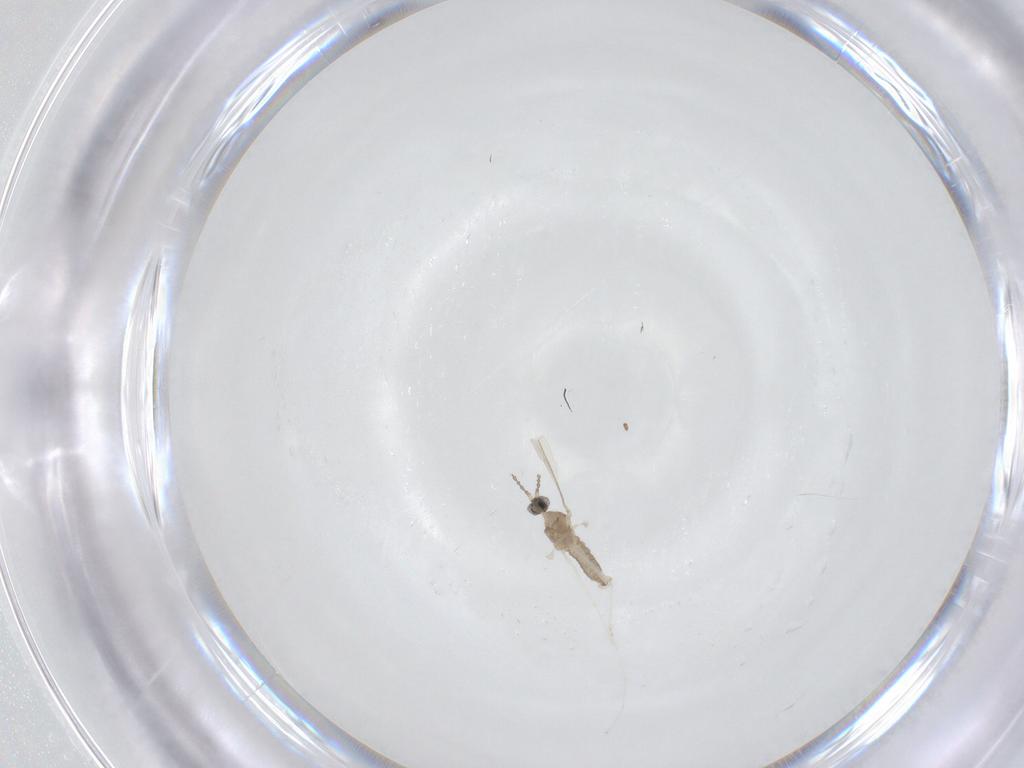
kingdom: Animalia
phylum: Arthropoda
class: Insecta
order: Diptera
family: Cecidomyiidae
